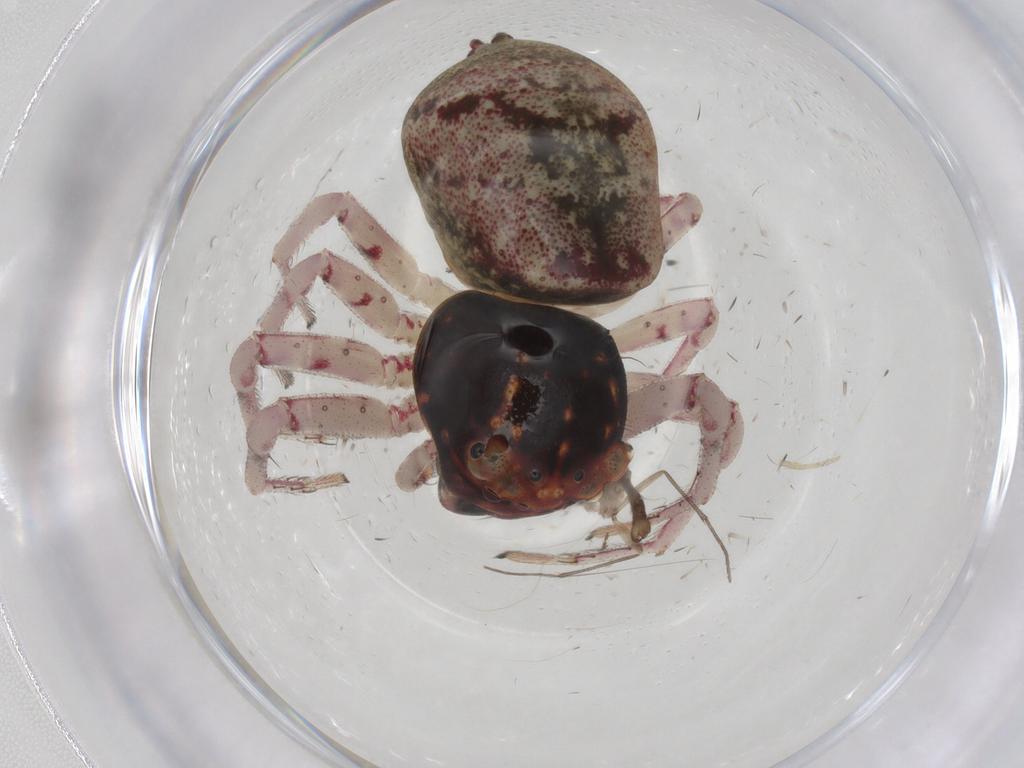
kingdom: Animalia
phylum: Arthropoda
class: Arachnida
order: Araneae
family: Thomisidae
